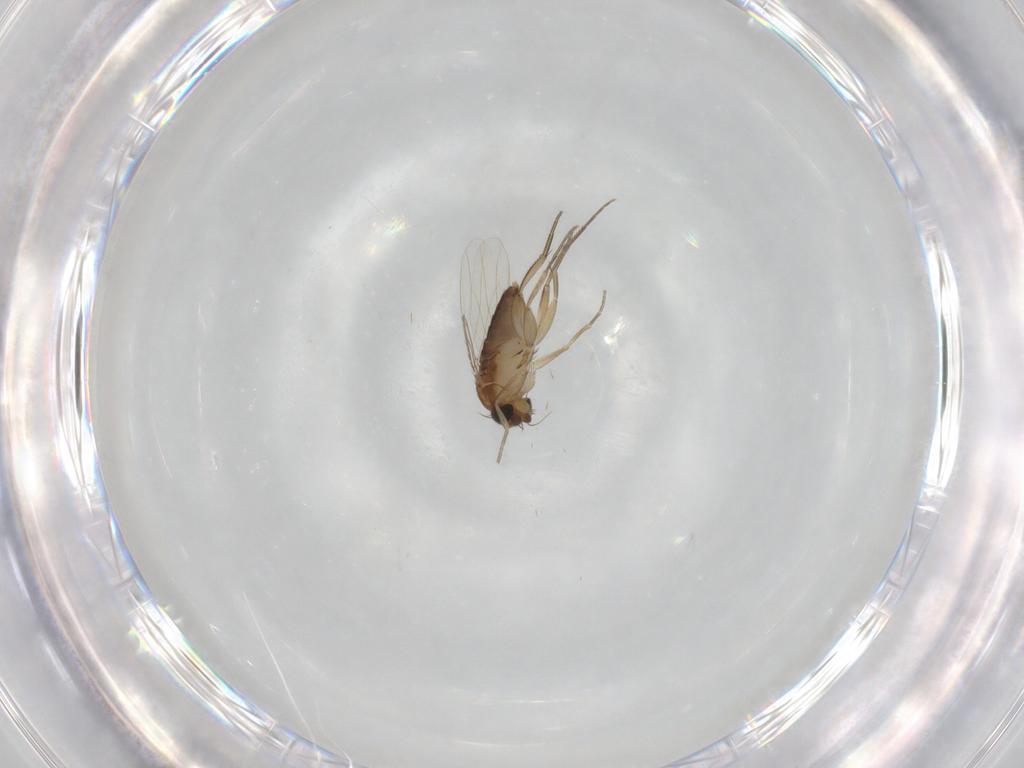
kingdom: Animalia
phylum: Arthropoda
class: Insecta
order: Diptera
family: Phoridae
